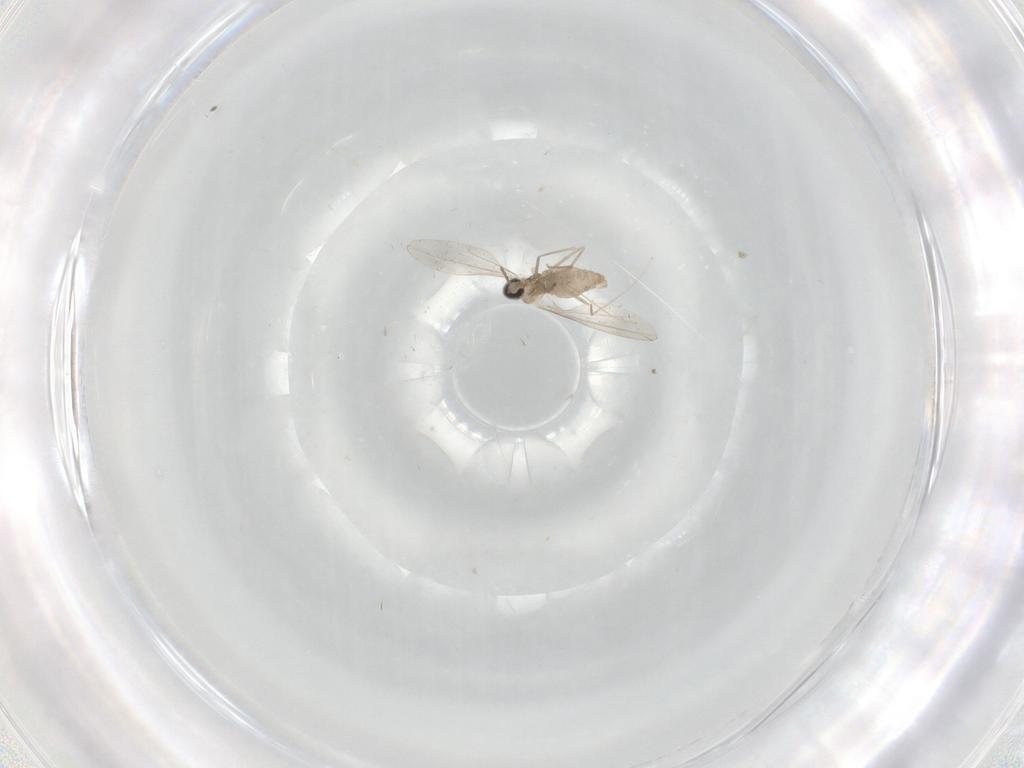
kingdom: Animalia
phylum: Arthropoda
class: Insecta
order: Diptera
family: Cecidomyiidae
